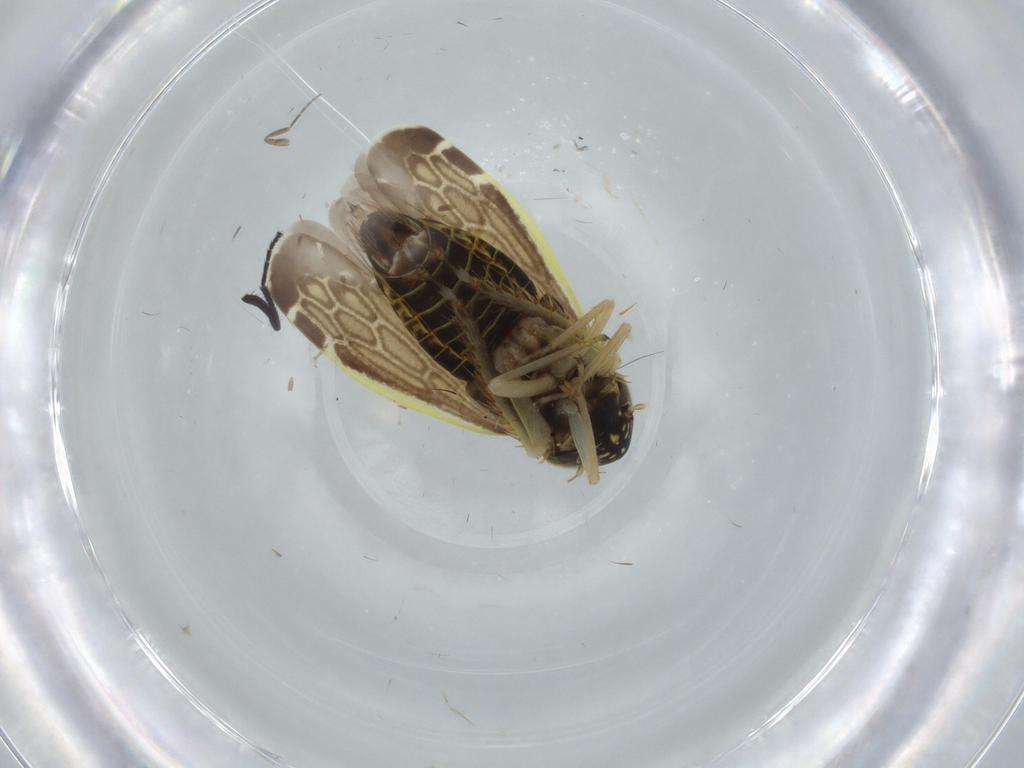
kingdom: Animalia
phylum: Arthropoda
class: Insecta
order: Hemiptera
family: Cicadellidae
